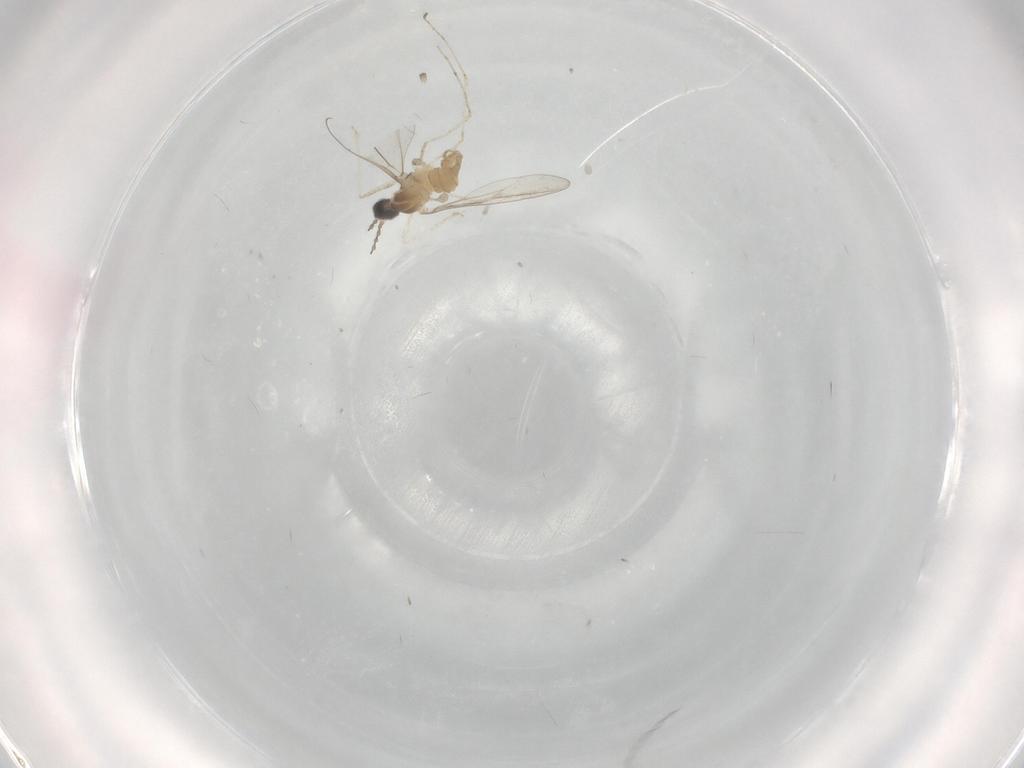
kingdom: Animalia
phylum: Arthropoda
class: Insecta
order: Diptera
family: Cecidomyiidae
